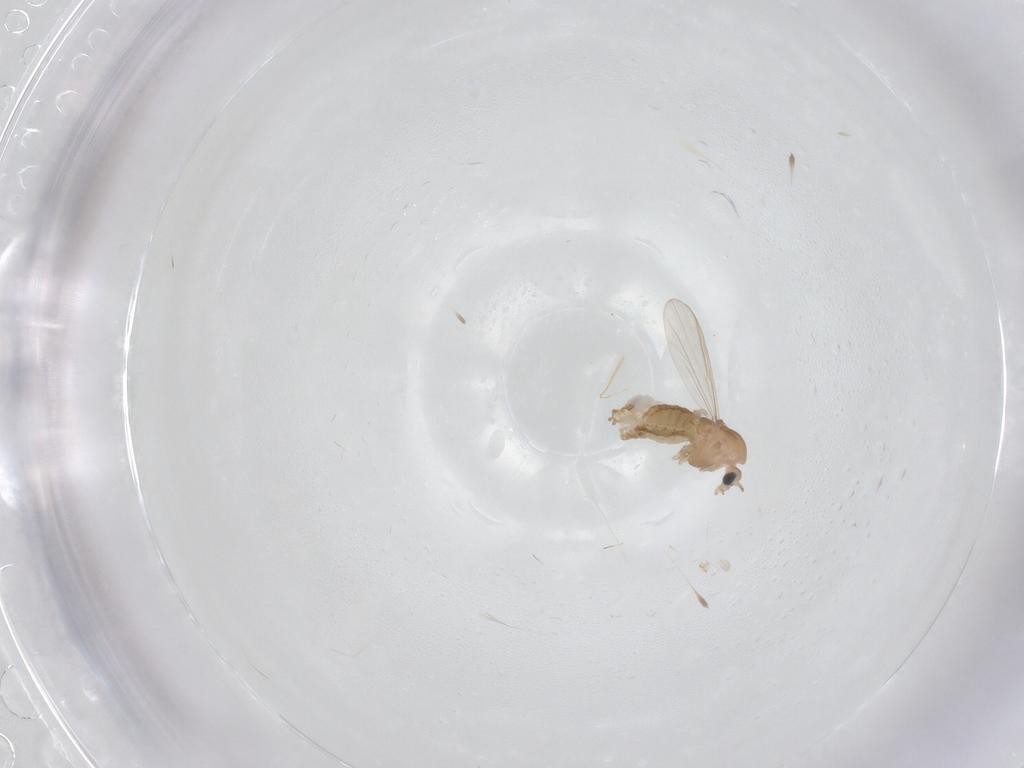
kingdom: Animalia
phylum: Arthropoda
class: Insecta
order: Diptera
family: Chironomidae
